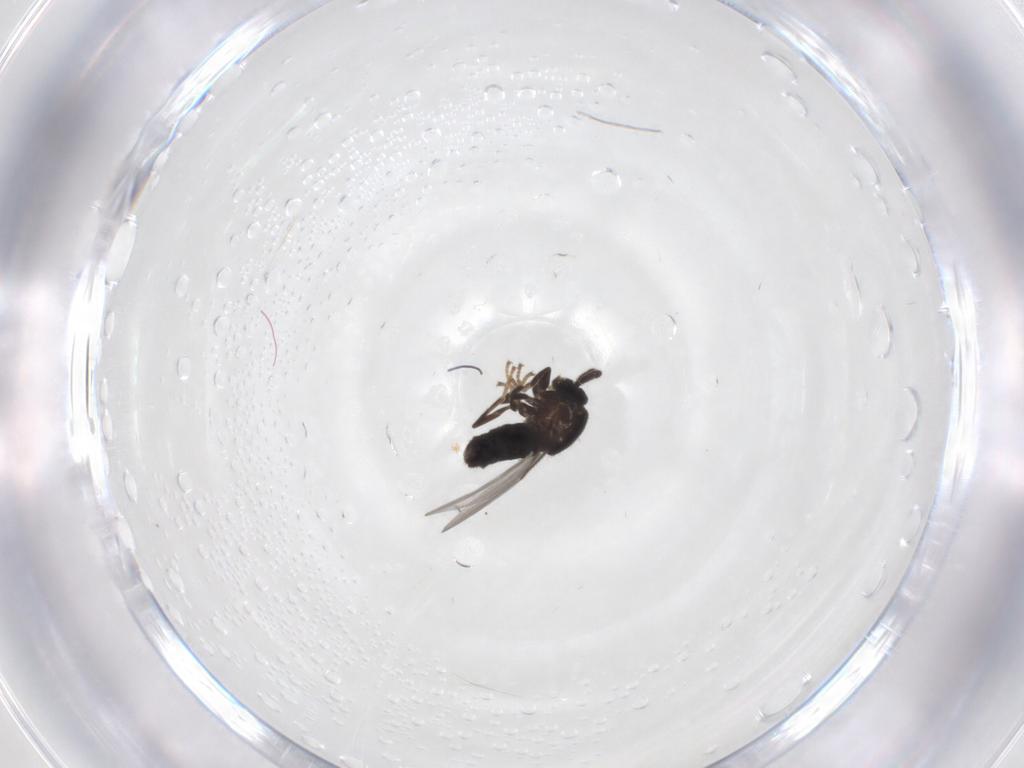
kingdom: Animalia
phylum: Arthropoda
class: Insecta
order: Diptera
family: Scatopsidae
